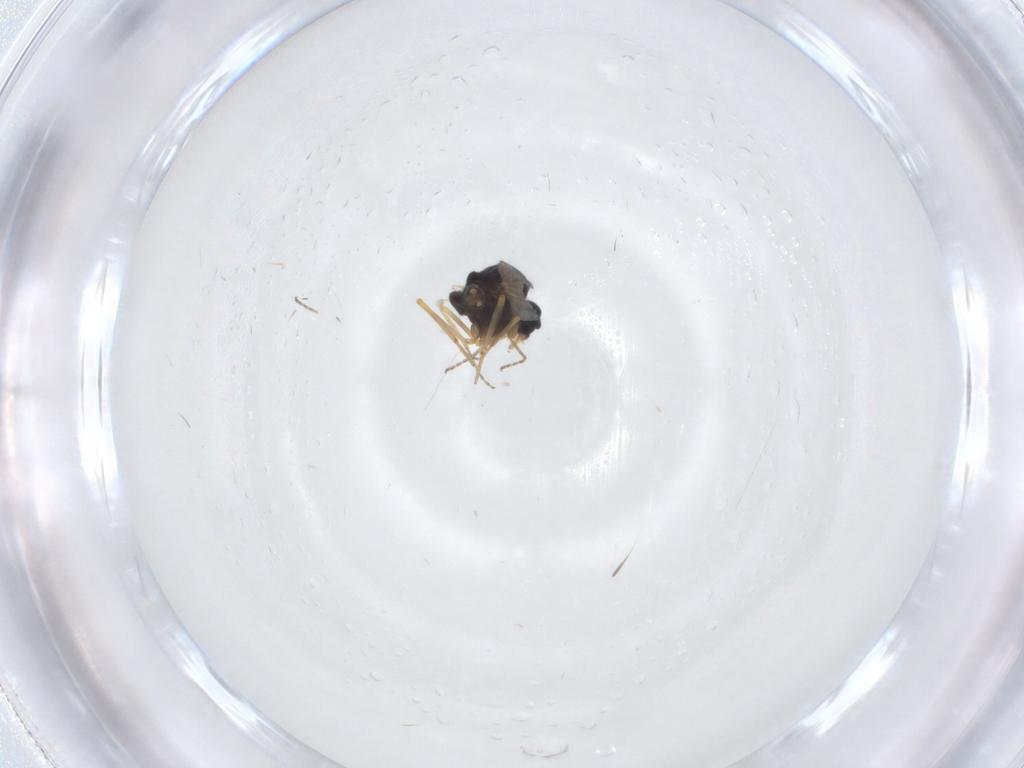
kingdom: Animalia
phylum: Arthropoda
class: Insecta
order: Diptera
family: Ceratopogonidae
